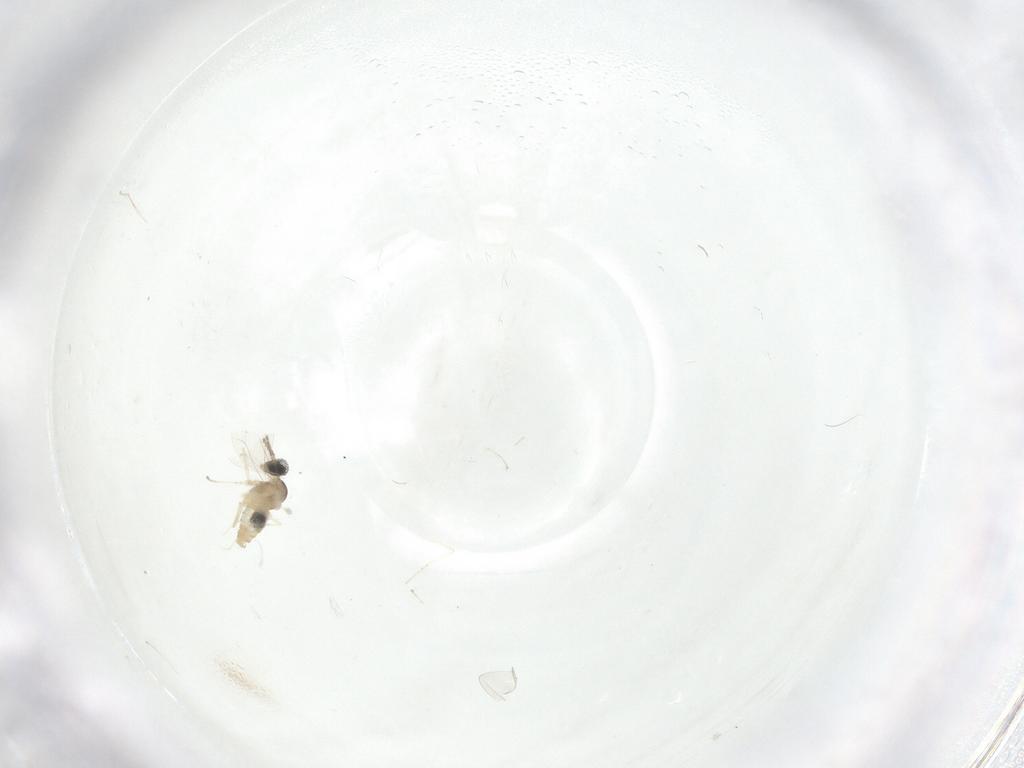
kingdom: Animalia
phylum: Arthropoda
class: Insecta
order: Diptera
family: Cecidomyiidae
